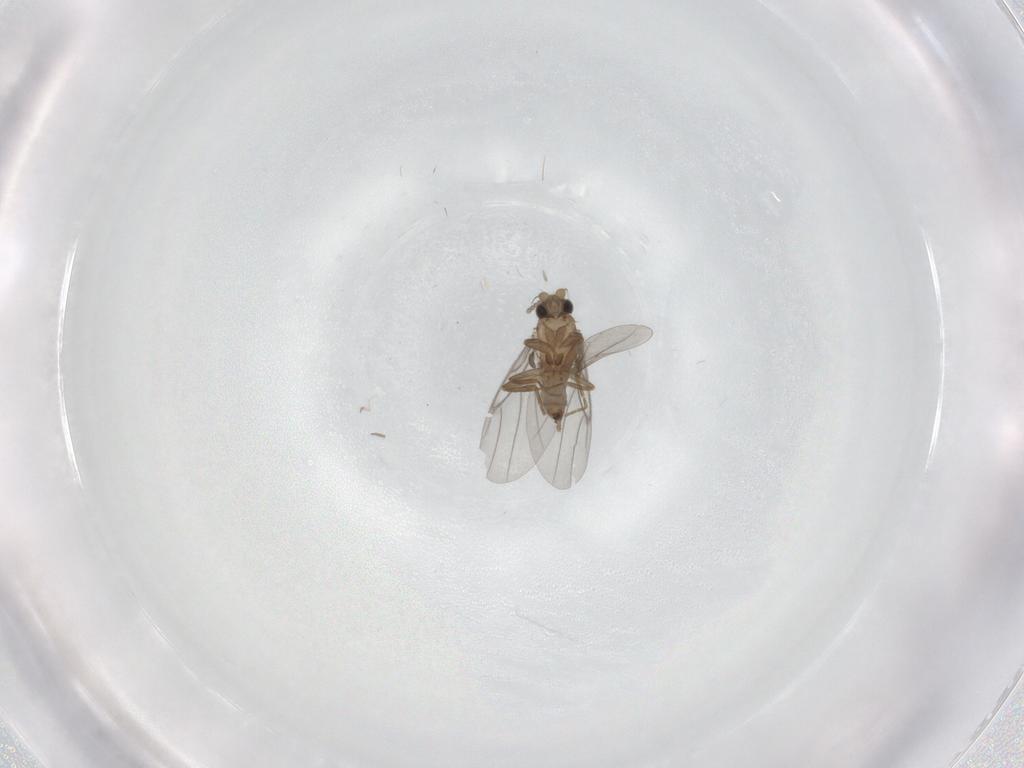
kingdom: Animalia
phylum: Arthropoda
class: Insecta
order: Diptera
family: Cecidomyiidae
